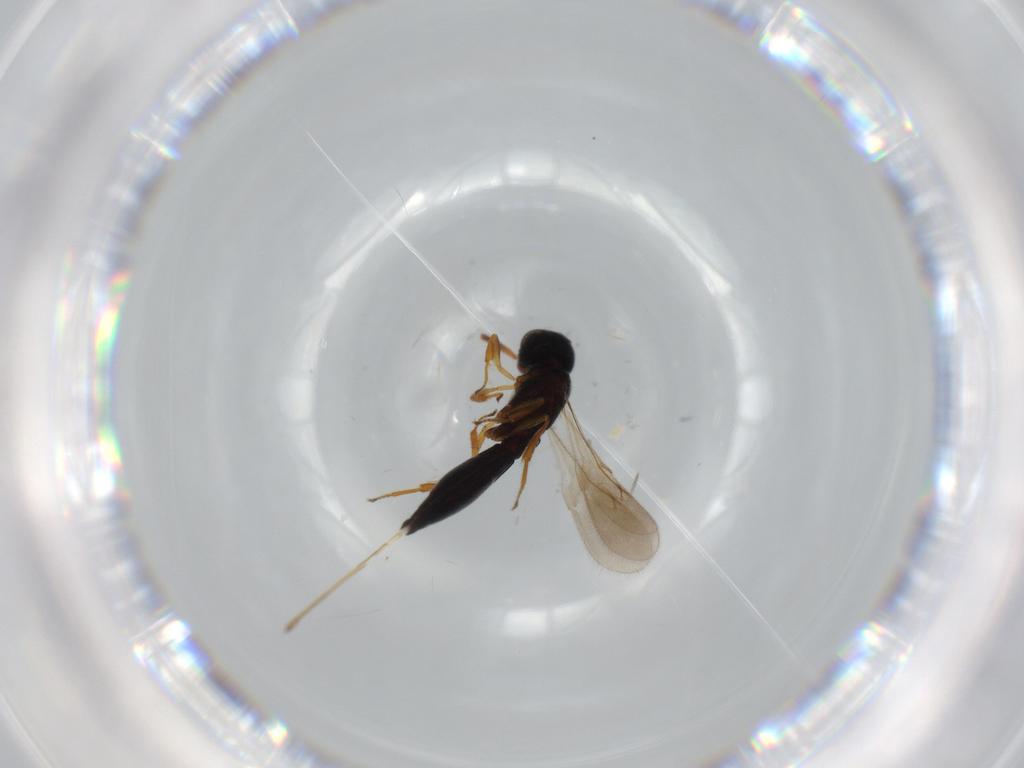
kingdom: Animalia
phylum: Arthropoda
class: Insecta
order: Hymenoptera
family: Scelionidae
